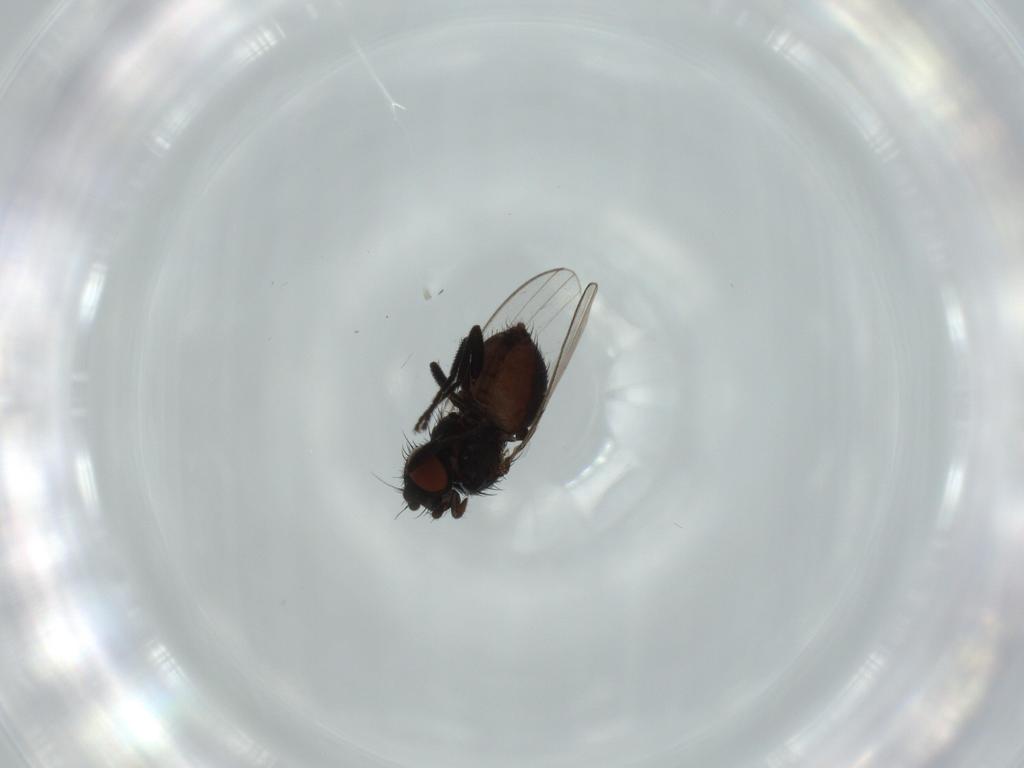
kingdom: Animalia
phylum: Arthropoda
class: Insecta
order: Diptera
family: Milichiidae
